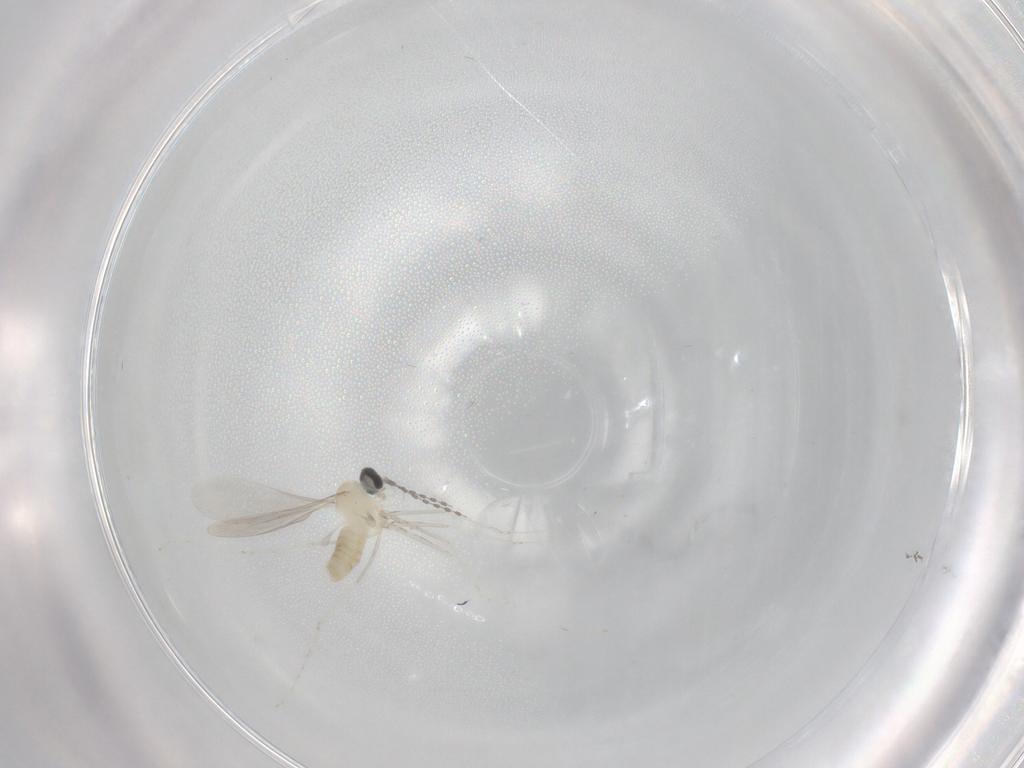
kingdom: Animalia
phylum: Arthropoda
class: Insecta
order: Diptera
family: Cecidomyiidae
